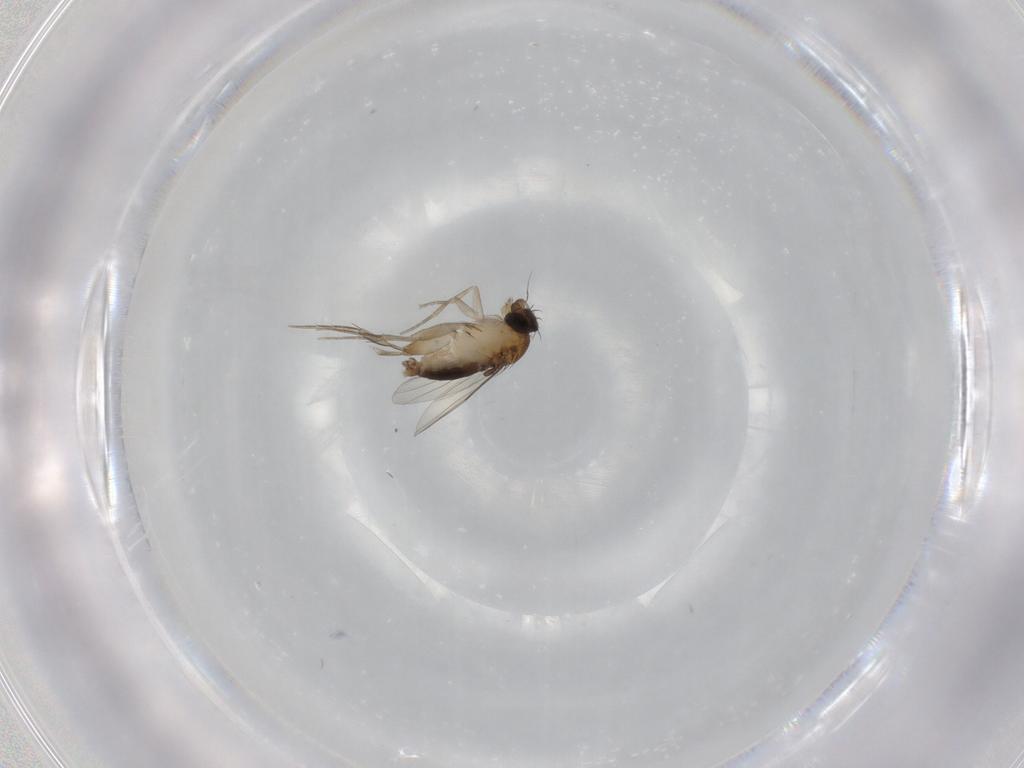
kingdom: Animalia
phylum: Arthropoda
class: Insecta
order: Diptera
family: Phoridae
